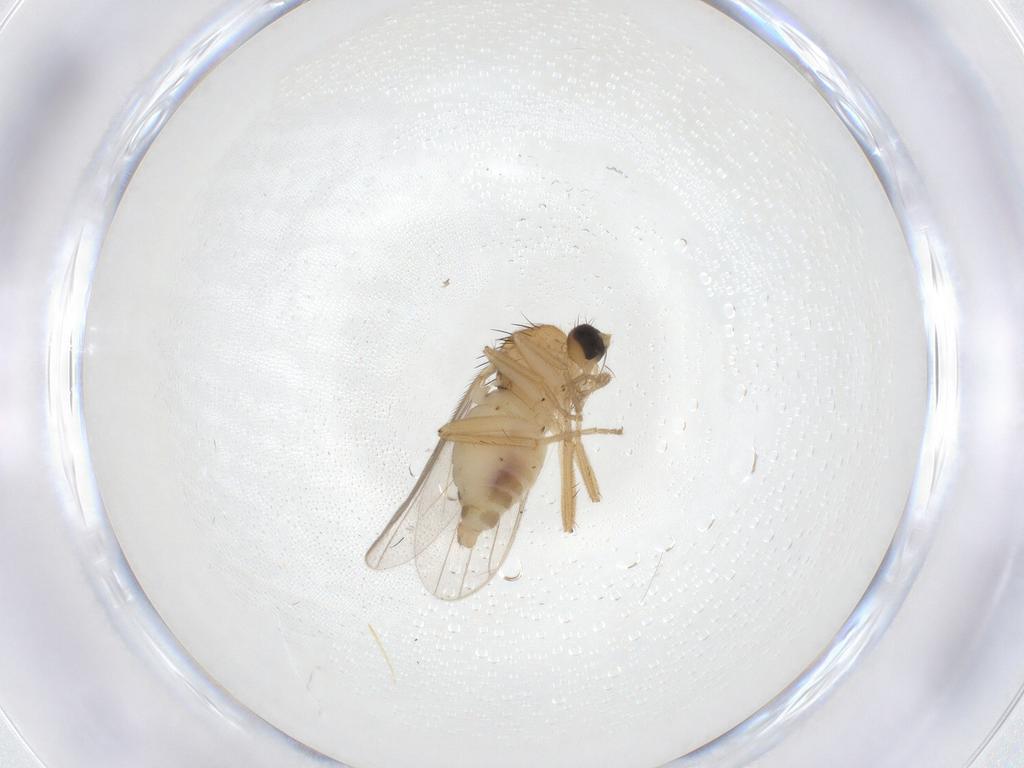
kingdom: Animalia
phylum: Arthropoda
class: Insecta
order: Diptera
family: Hybotidae
